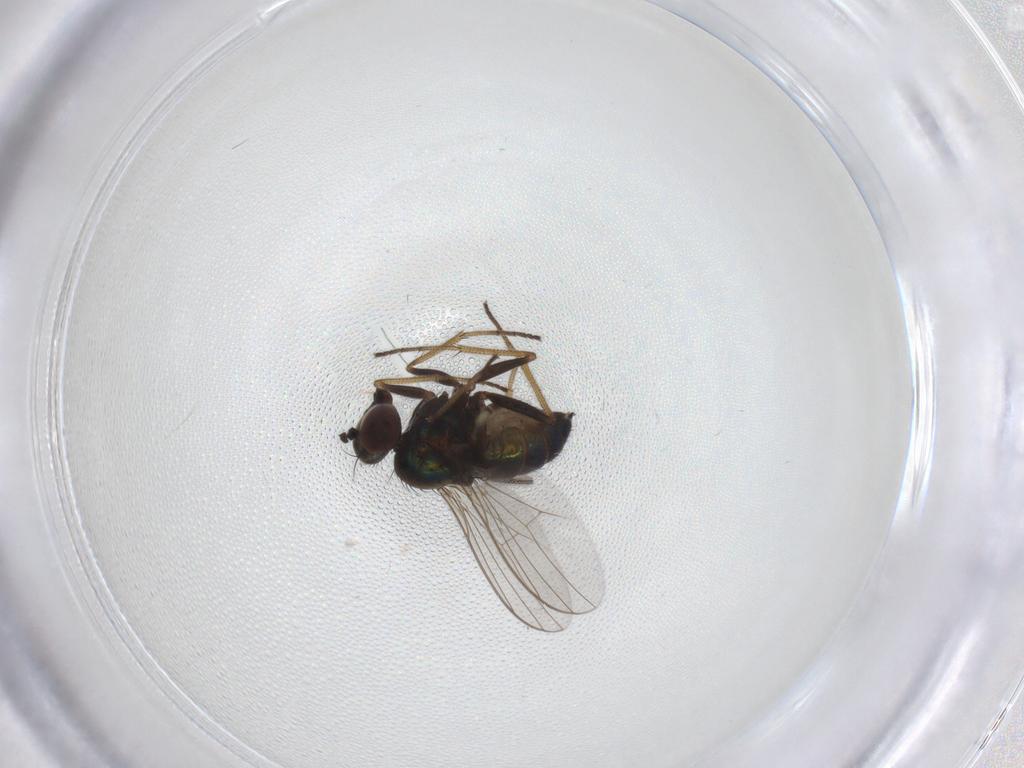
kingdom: Animalia
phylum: Arthropoda
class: Insecta
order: Diptera
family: Dolichopodidae
